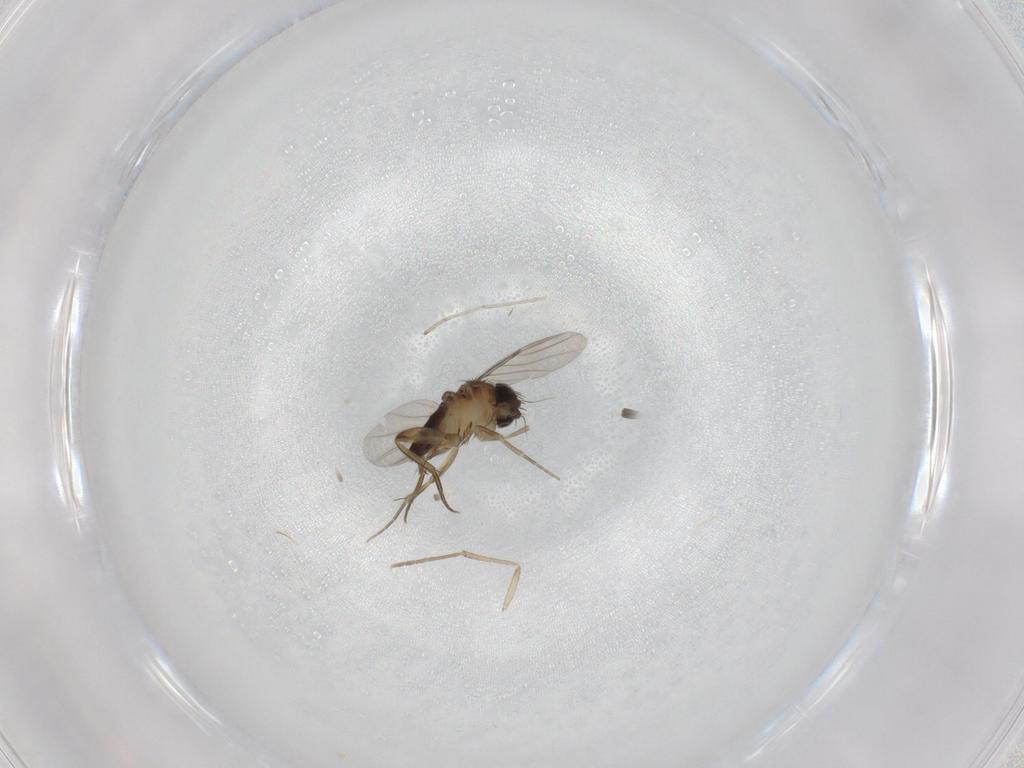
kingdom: Animalia
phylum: Arthropoda
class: Insecta
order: Diptera
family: Phoridae
